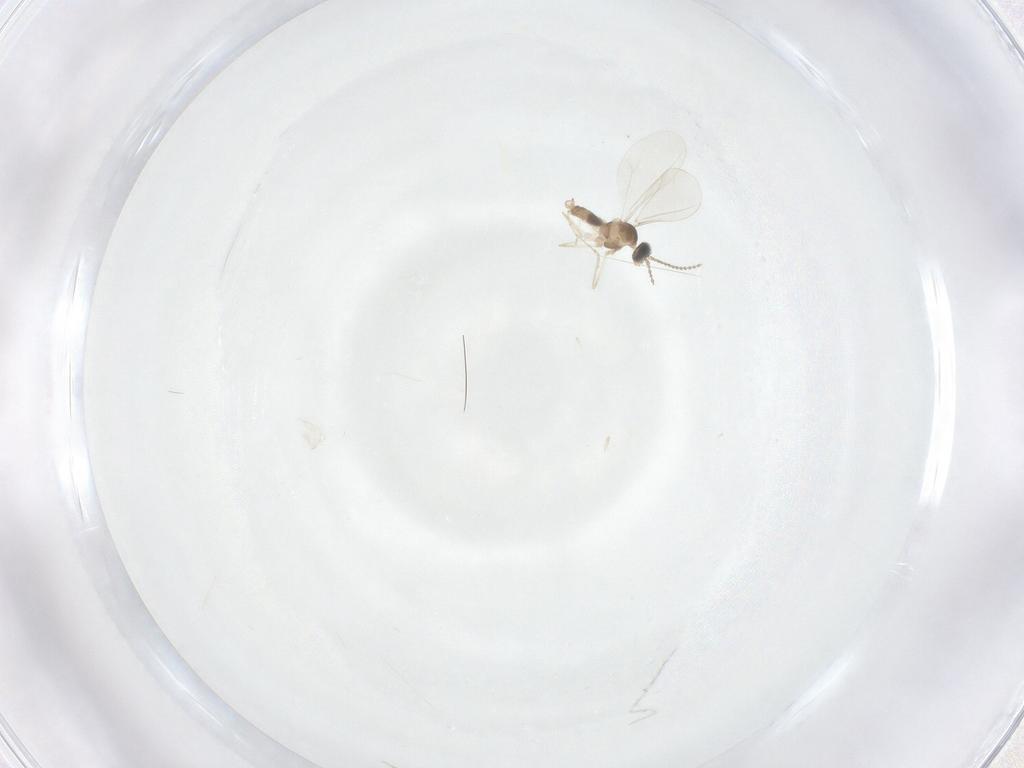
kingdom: Animalia
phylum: Arthropoda
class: Insecta
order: Diptera
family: Cecidomyiidae
